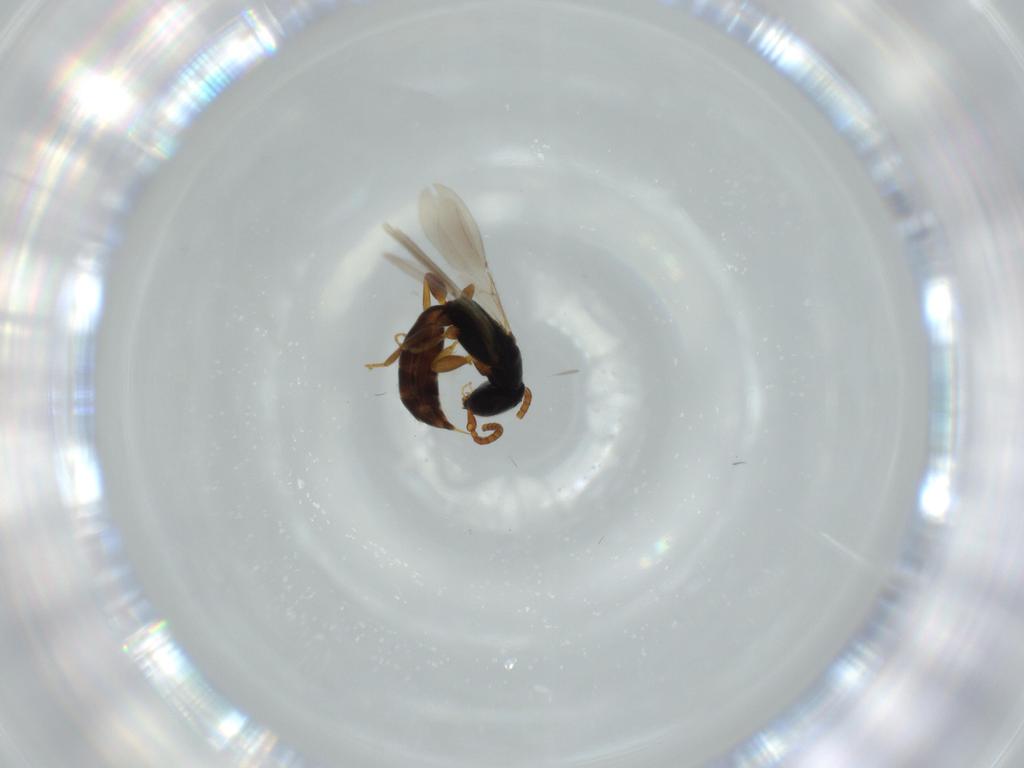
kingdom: Animalia
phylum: Arthropoda
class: Insecta
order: Hymenoptera
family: Bethylidae
